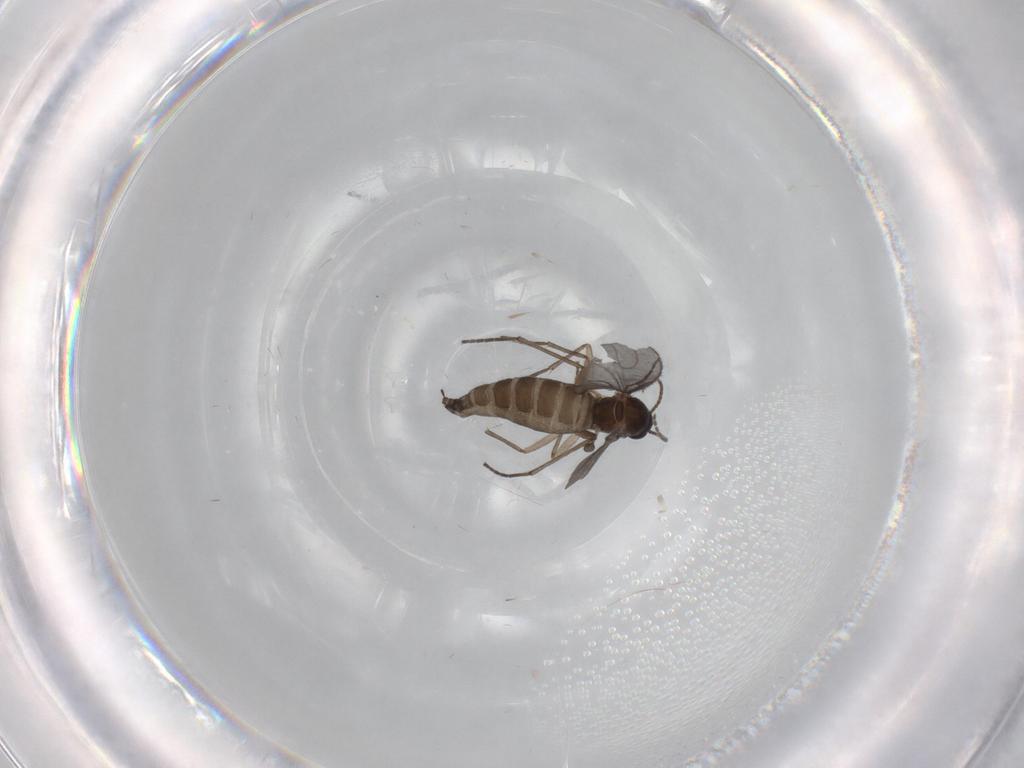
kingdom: Animalia
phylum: Arthropoda
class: Insecta
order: Diptera
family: Sciaridae
